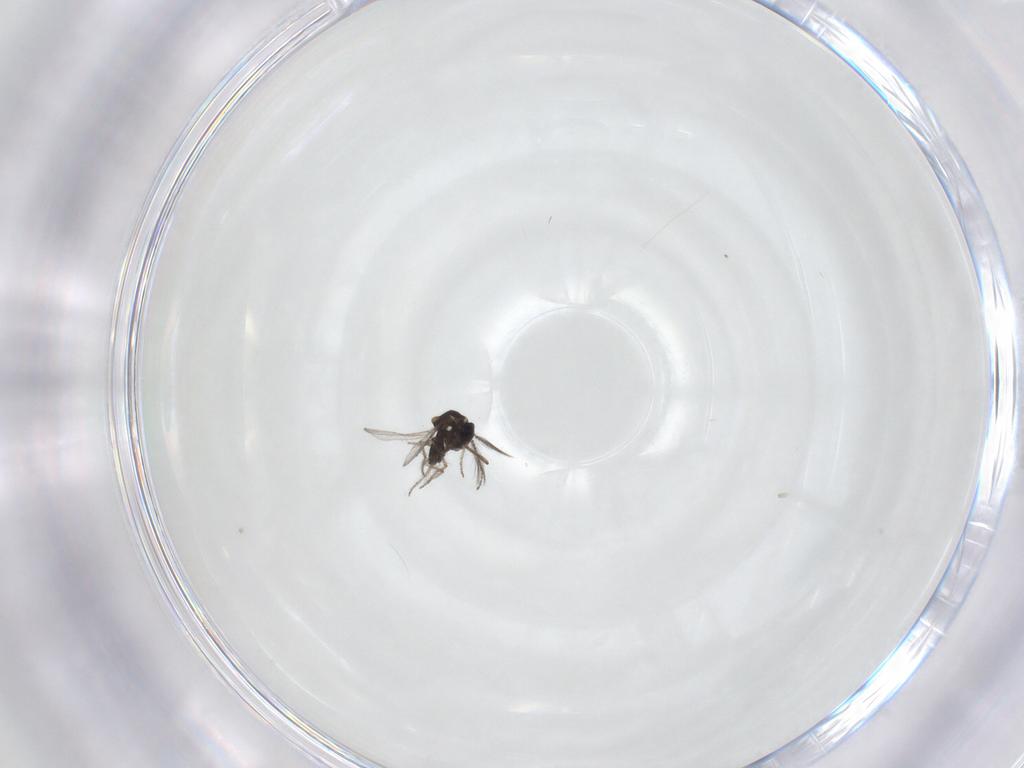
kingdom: Animalia
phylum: Arthropoda
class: Insecta
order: Diptera
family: Ceratopogonidae
